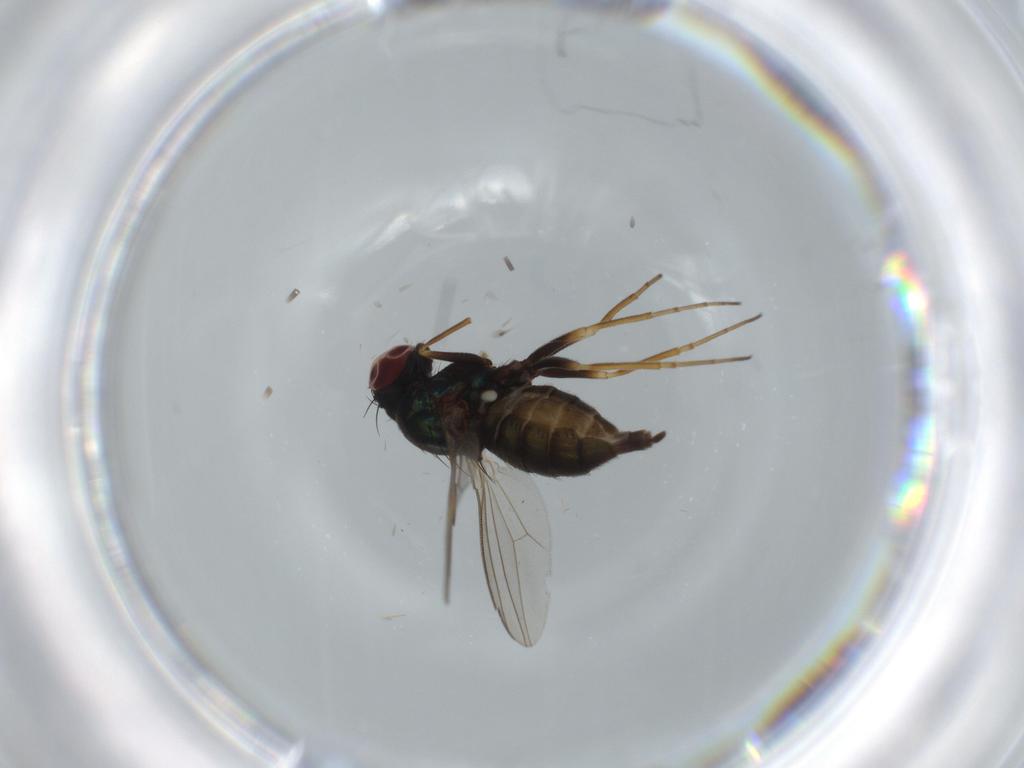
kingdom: Animalia
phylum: Arthropoda
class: Insecta
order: Diptera
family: Dolichopodidae
